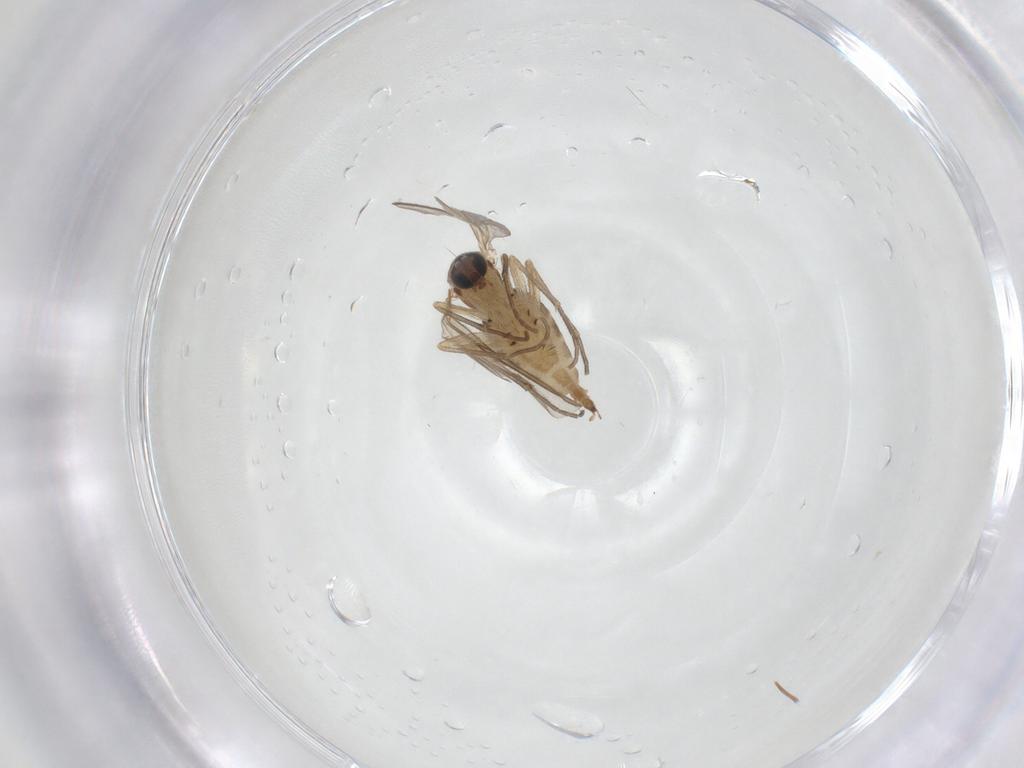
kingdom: Animalia
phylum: Arthropoda
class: Insecta
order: Diptera
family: Sciaridae
